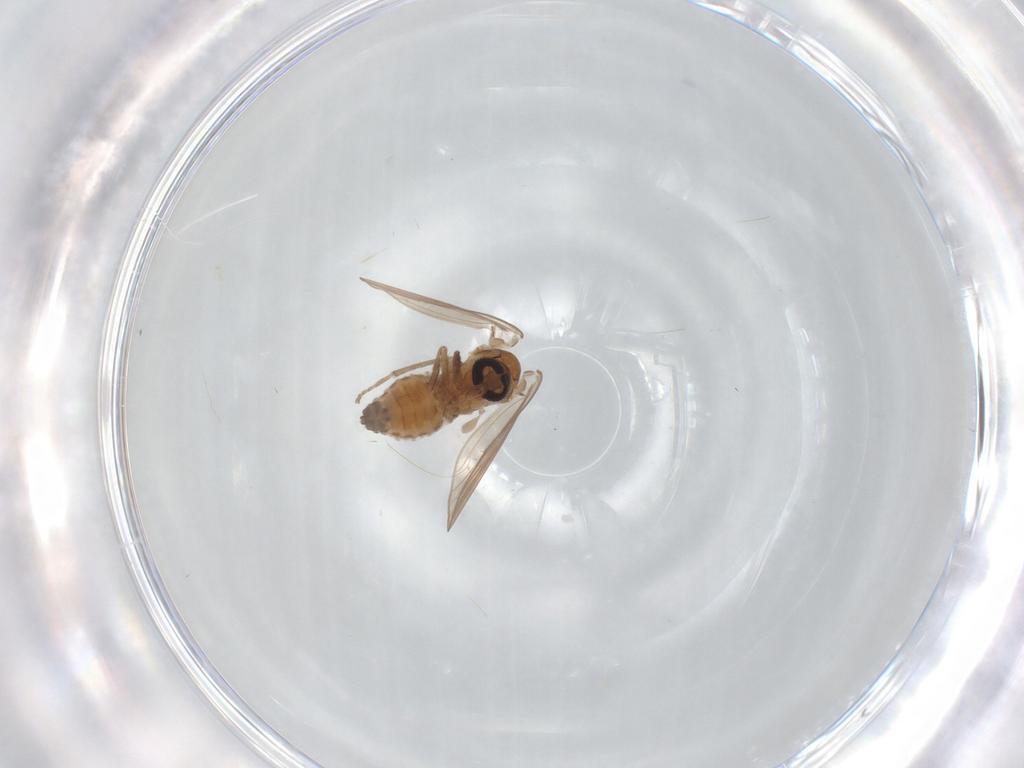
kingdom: Animalia
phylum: Arthropoda
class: Insecta
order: Diptera
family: Psychodidae
